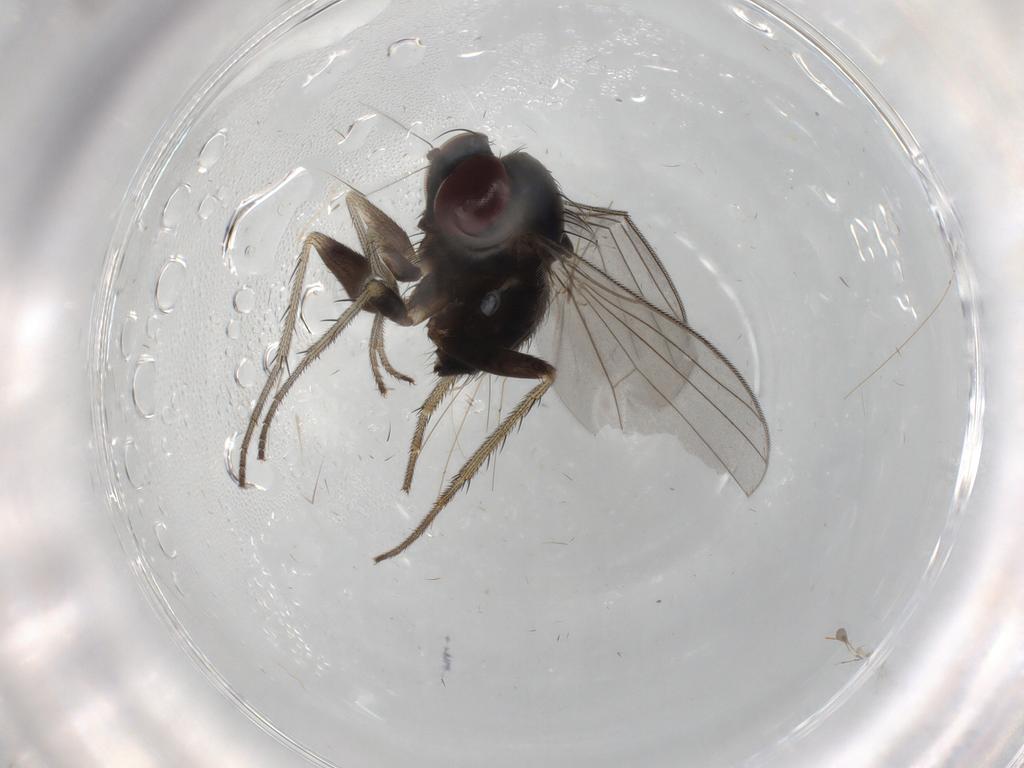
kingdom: Animalia
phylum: Arthropoda
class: Insecta
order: Diptera
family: Dolichopodidae
